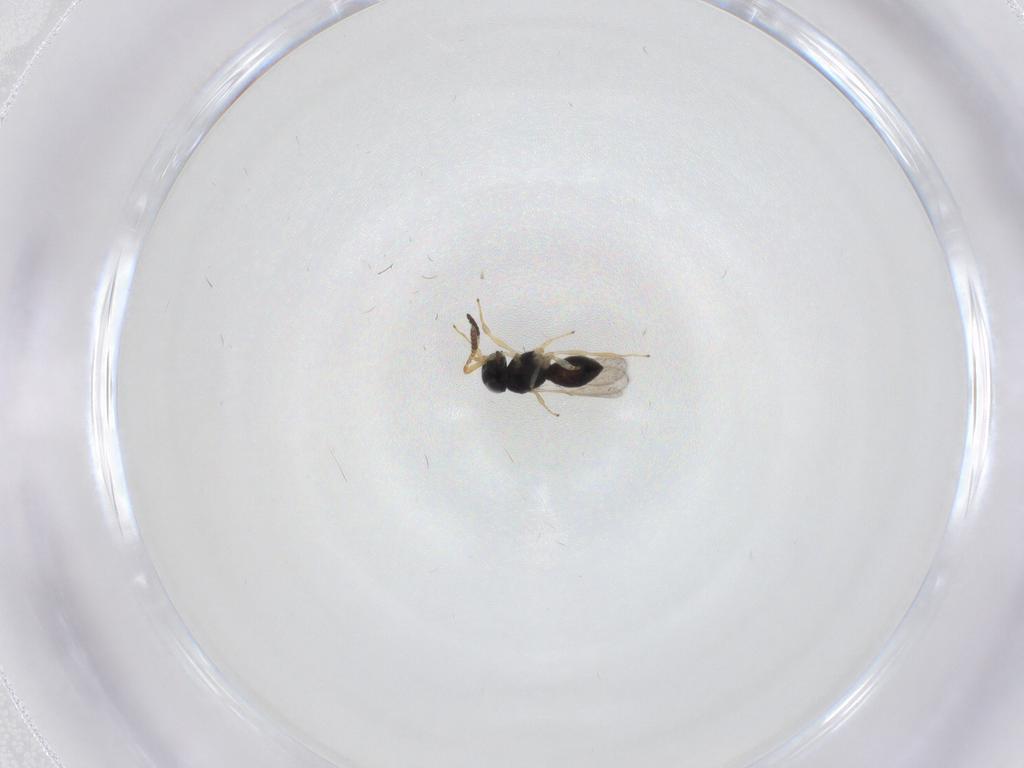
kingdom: Animalia
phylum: Arthropoda
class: Insecta
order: Hymenoptera
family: Scelionidae
